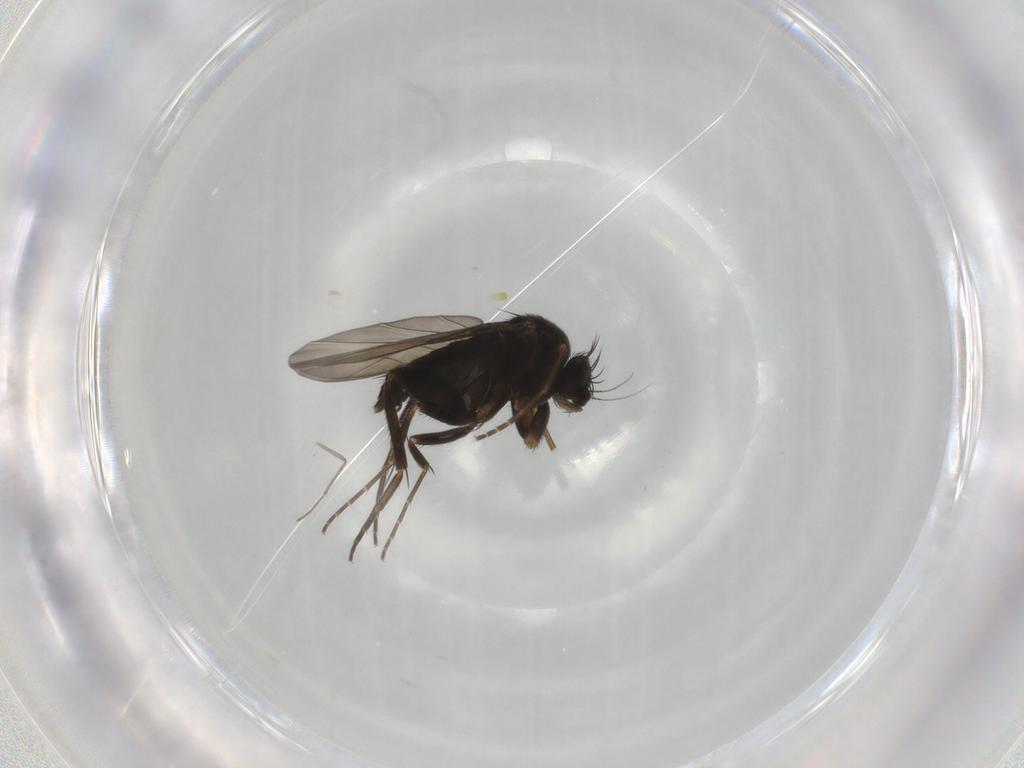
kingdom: Animalia
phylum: Arthropoda
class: Insecta
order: Diptera
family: Phoridae
